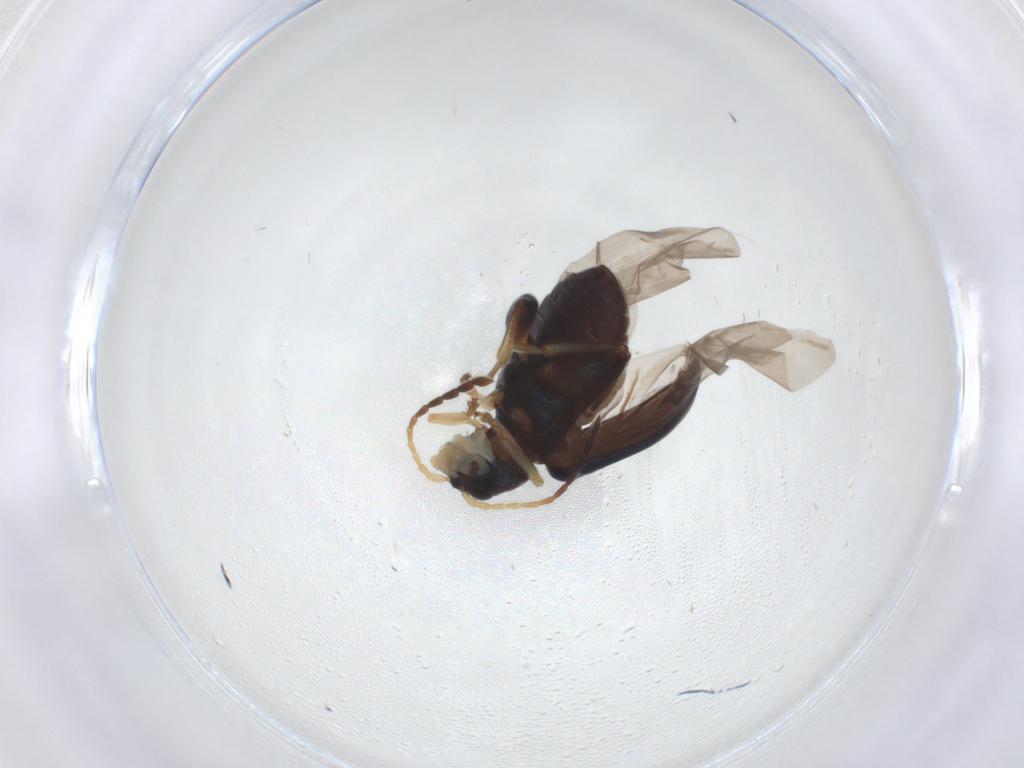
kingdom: Animalia
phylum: Arthropoda
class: Insecta
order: Coleoptera
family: Chrysomelidae
